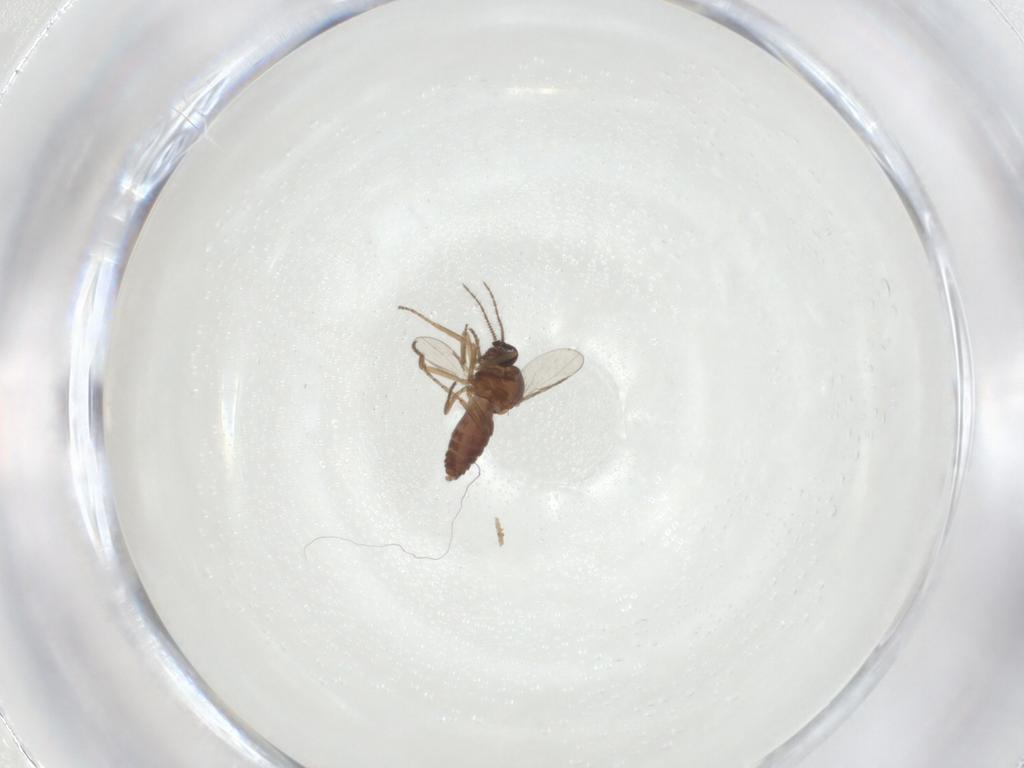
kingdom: Animalia
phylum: Arthropoda
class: Insecta
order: Diptera
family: Ceratopogonidae
